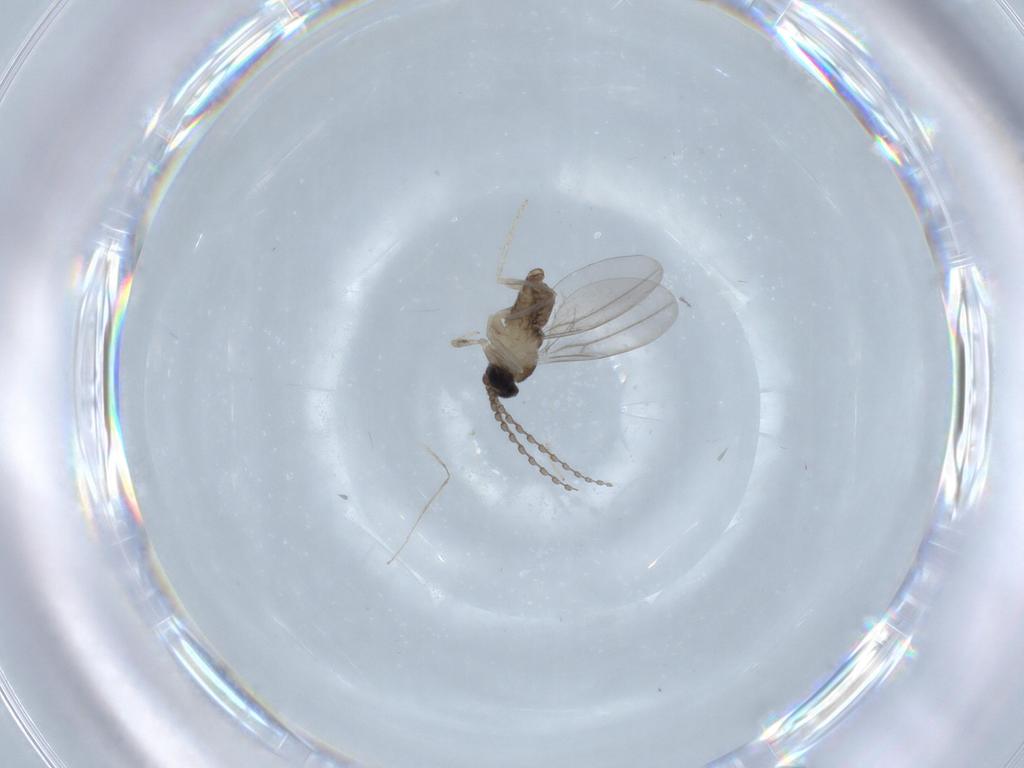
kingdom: Animalia
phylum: Arthropoda
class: Insecta
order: Diptera
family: Cecidomyiidae
